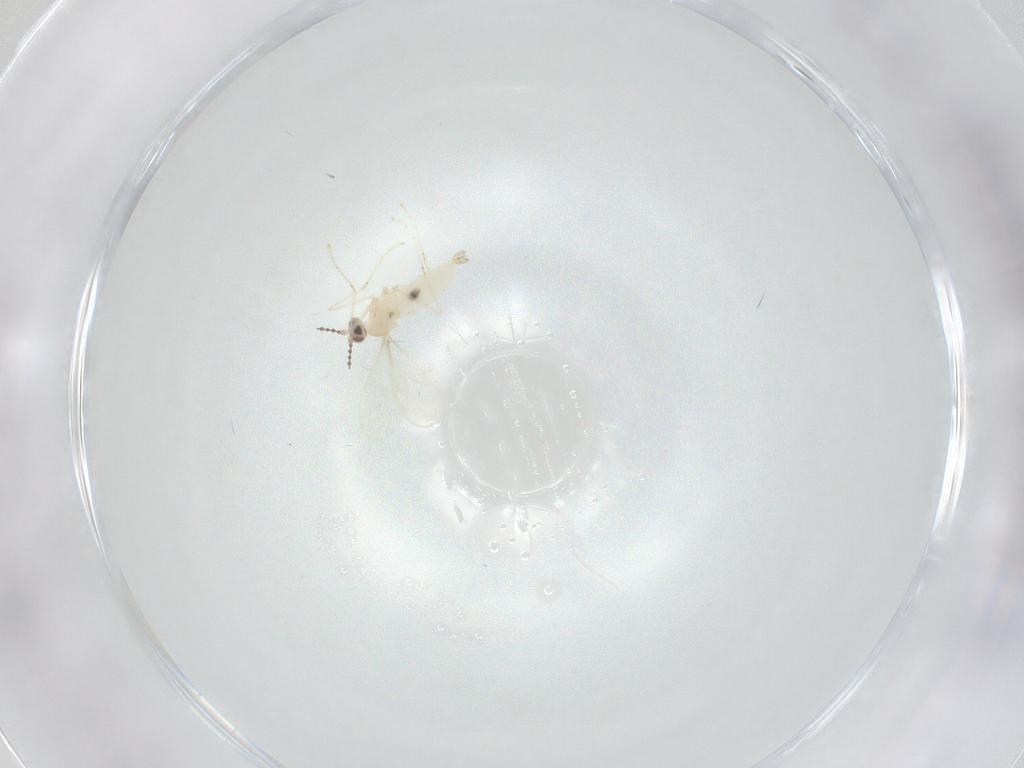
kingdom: Animalia
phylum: Arthropoda
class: Insecta
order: Diptera
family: Cecidomyiidae
